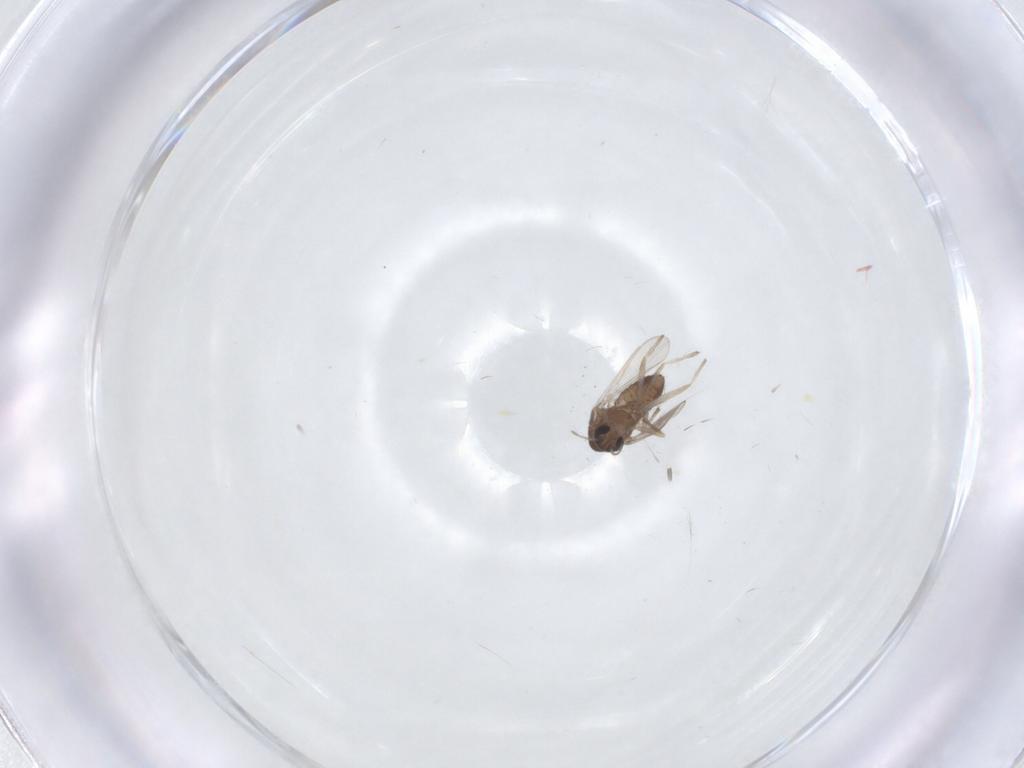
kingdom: Animalia
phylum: Arthropoda
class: Insecta
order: Diptera
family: Chironomidae
